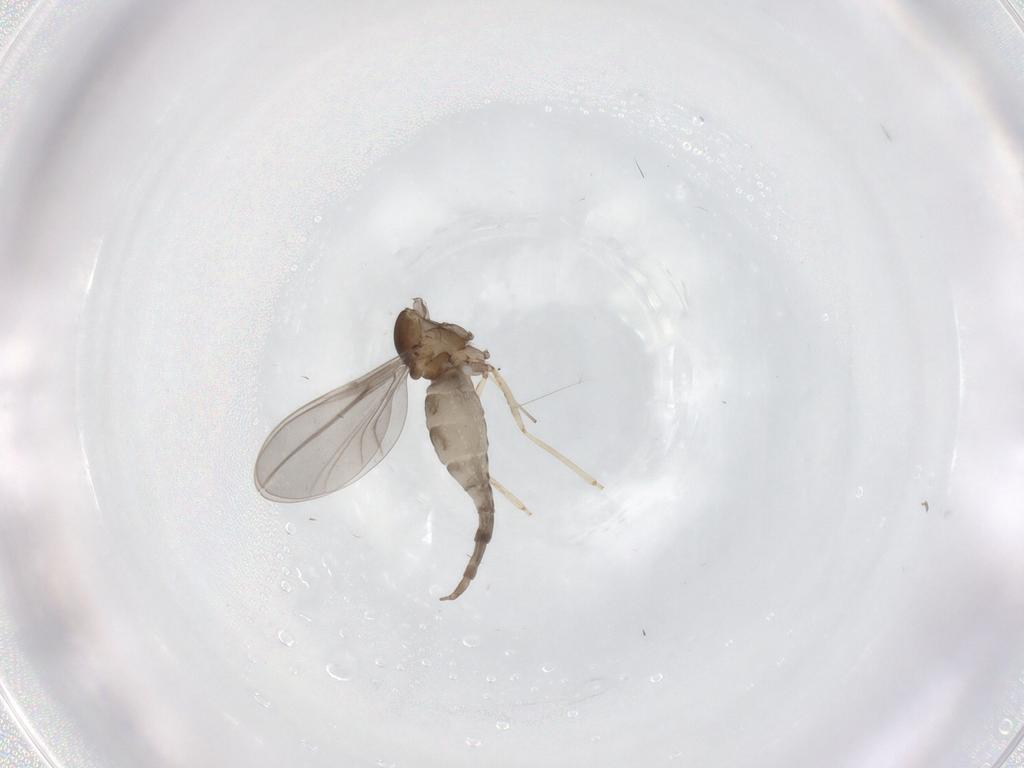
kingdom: Animalia
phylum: Arthropoda
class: Insecta
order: Diptera
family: Cecidomyiidae
